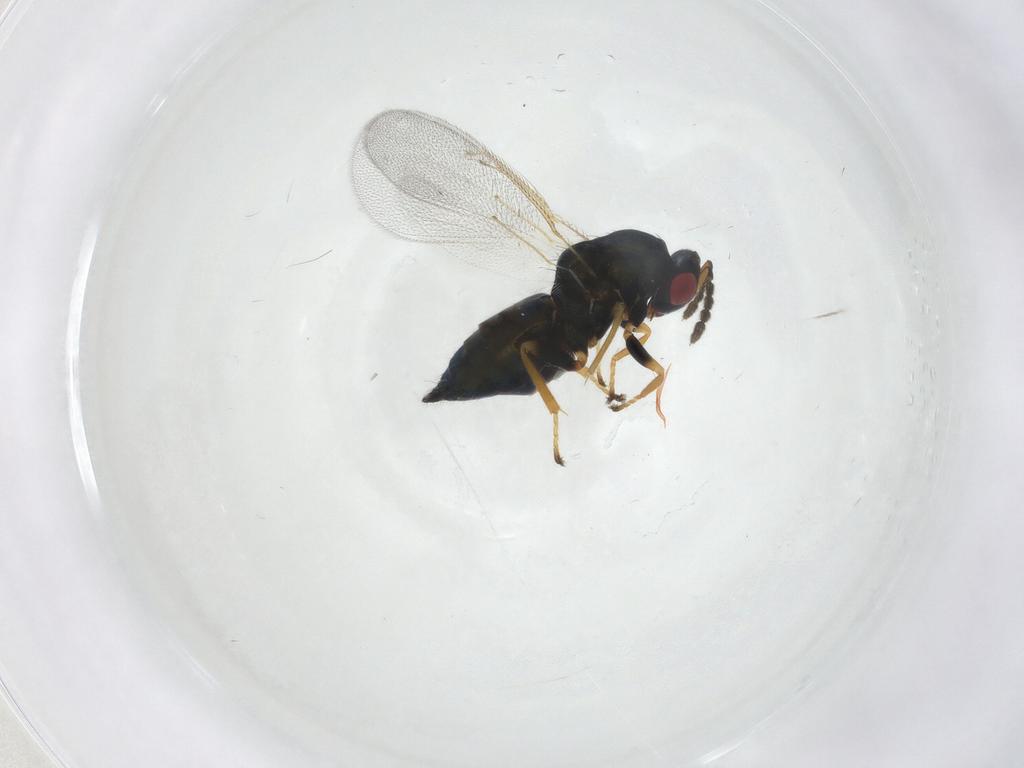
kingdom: Animalia
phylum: Arthropoda
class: Insecta
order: Hymenoptera
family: Eulophidae
